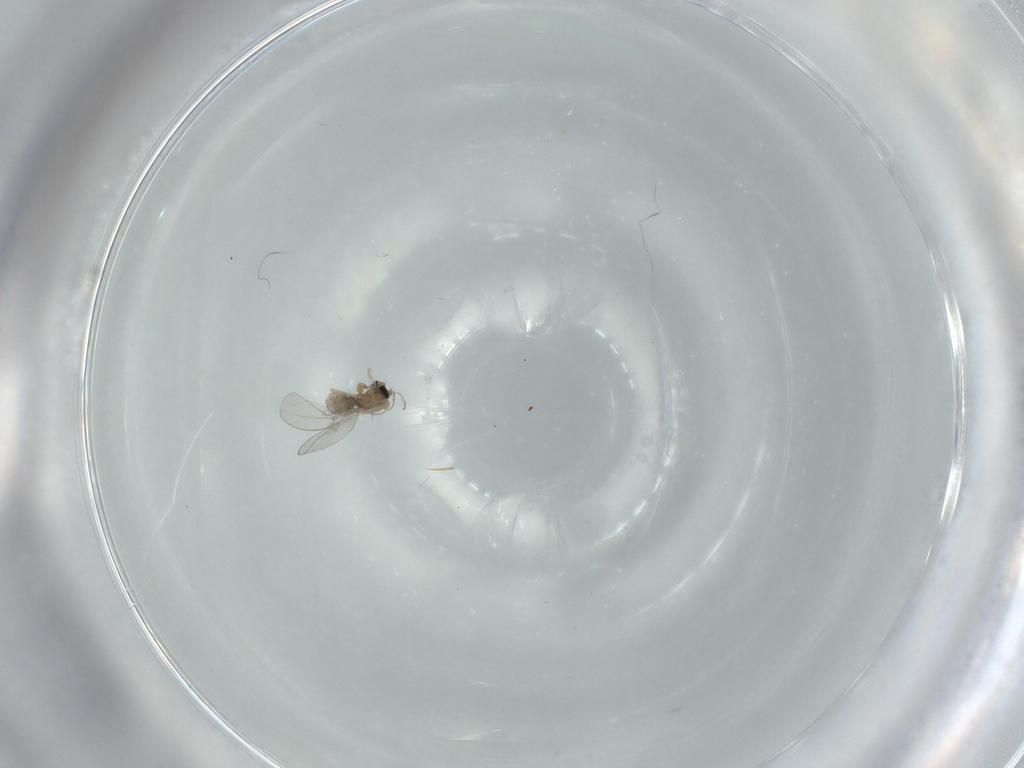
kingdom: Animalia
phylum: Arthropoda
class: Insecta
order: Diptera
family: Cecidomyiidae
